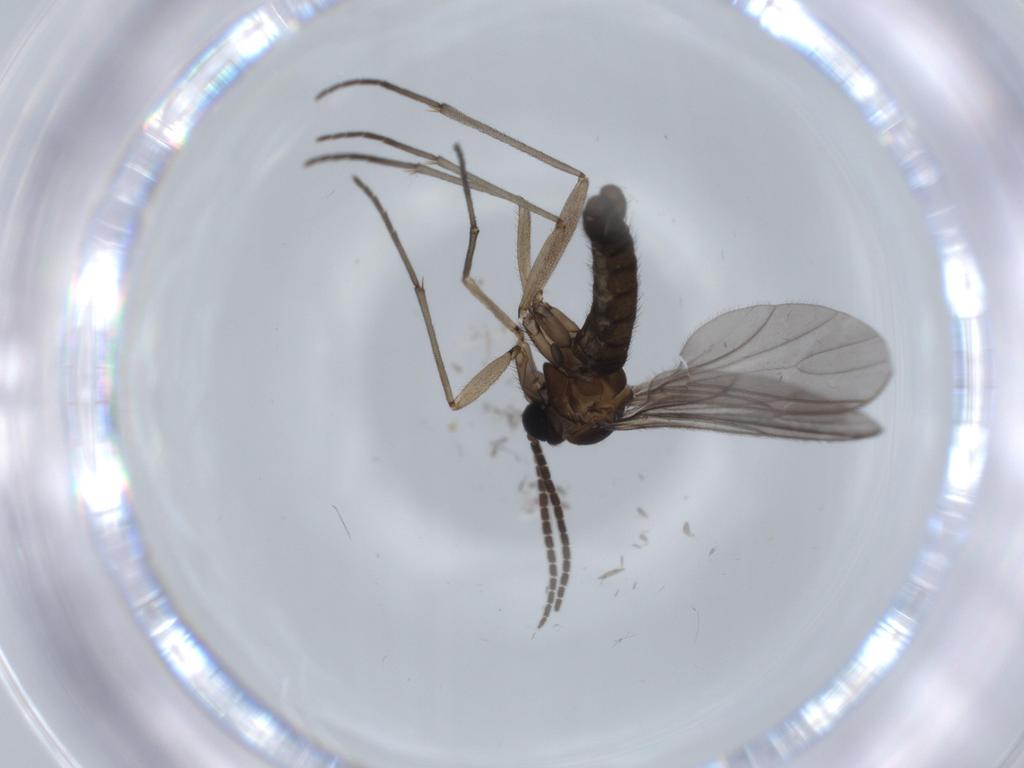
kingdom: Animalia
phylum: Arthropoda
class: Insecta
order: Diptera
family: Sciaridae
